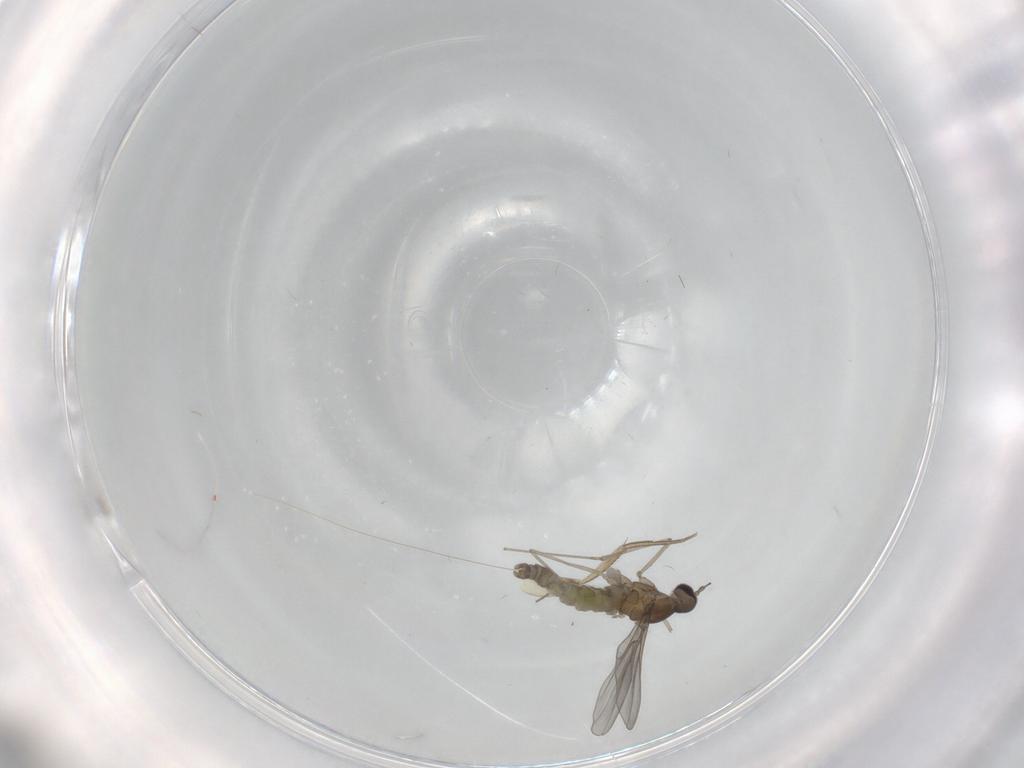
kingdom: Animalia
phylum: Arthropoda
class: Insecta
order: Diptera
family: Cecidomyiidae
